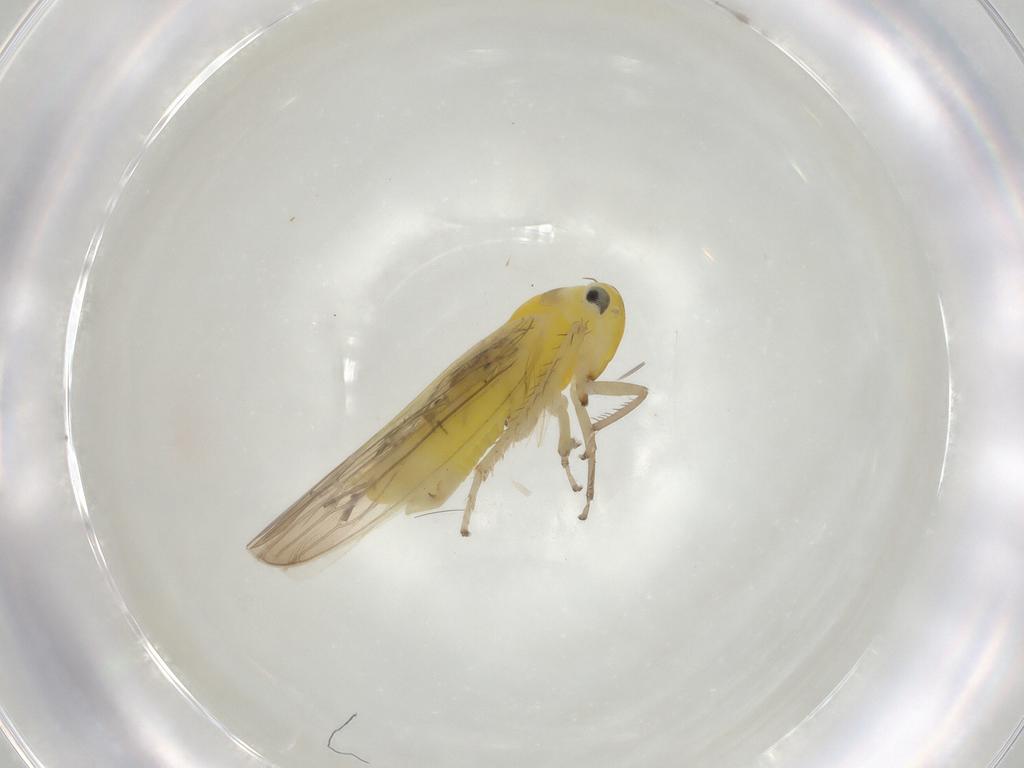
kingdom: Animalia
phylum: Arthropoda
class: Insecta
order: Hemiptera
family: Cicadellidae
